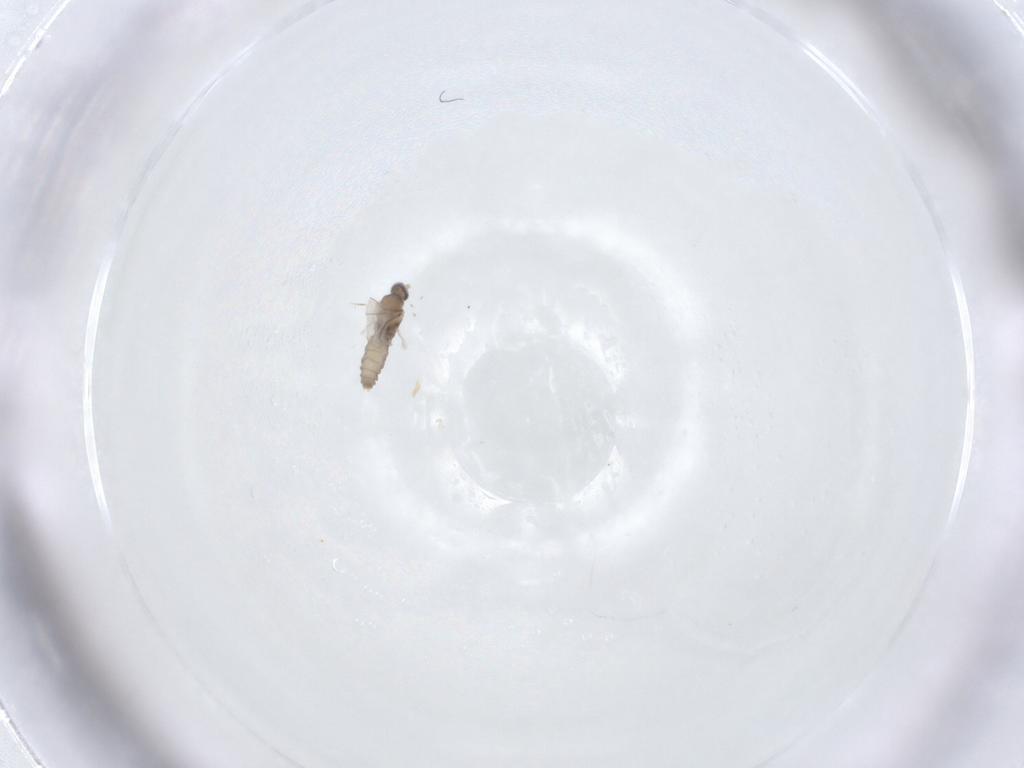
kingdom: Animalia
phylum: Arthropoda
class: Insecta
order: Diptera
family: Cecidomyiidae
